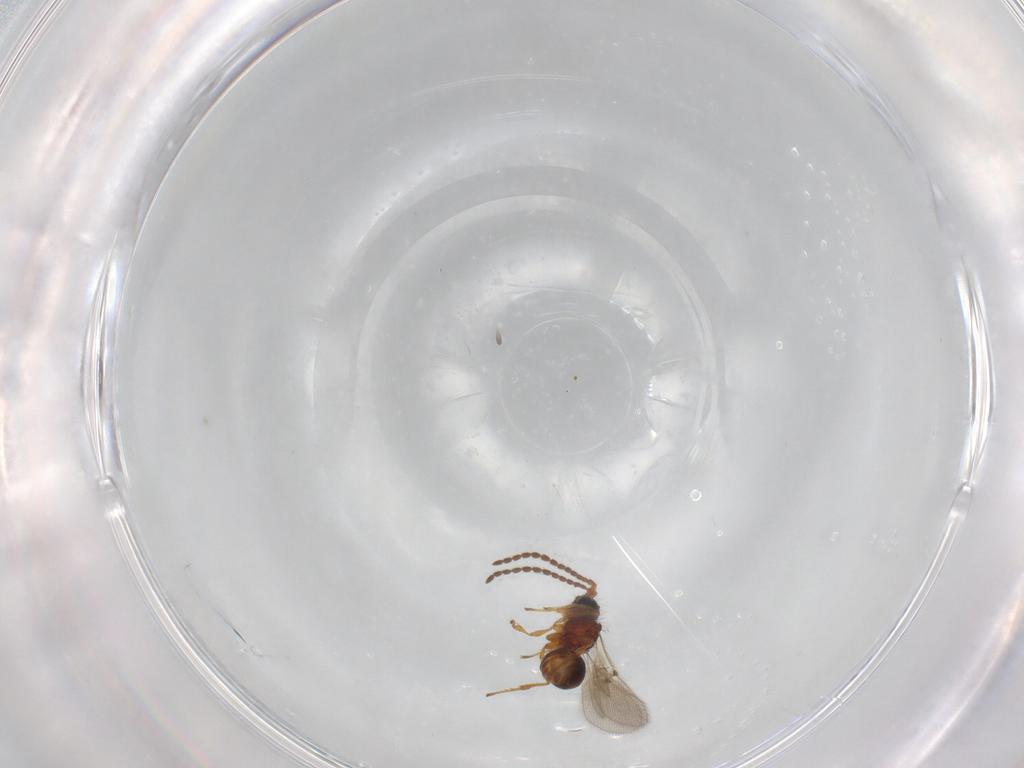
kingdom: Animalia
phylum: Arthropoda
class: Insecta
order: Hymenoptera
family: Diapriidae
